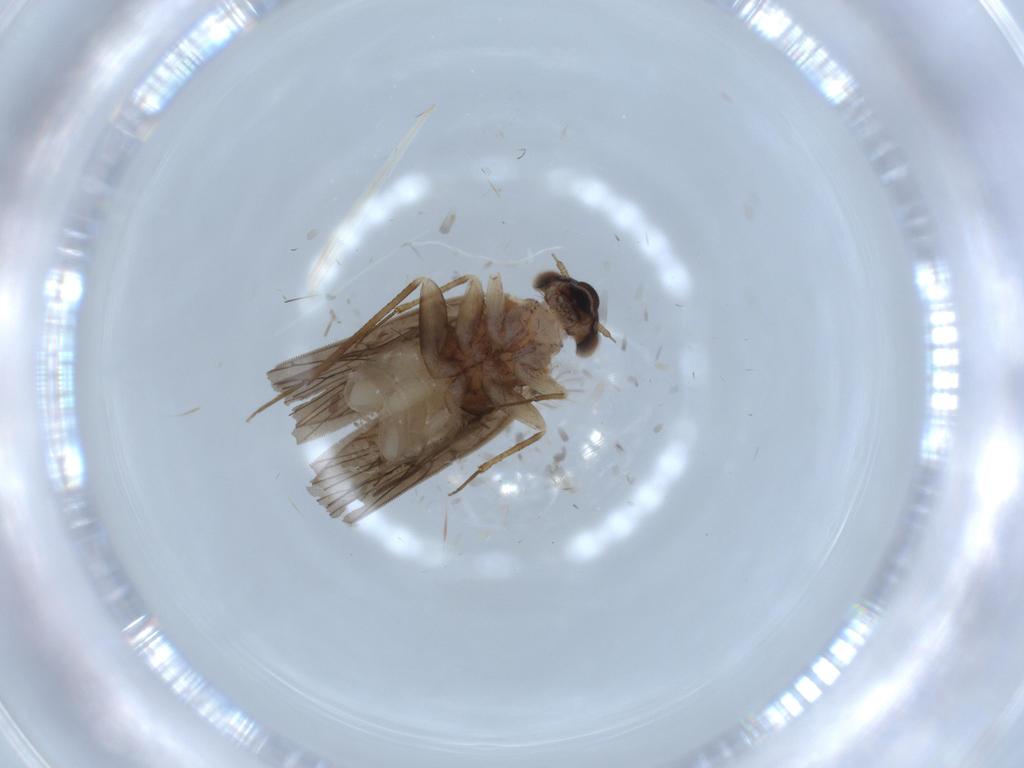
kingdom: Animalia
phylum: Arthropoda
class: Insecta
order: Psocodea
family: Lepidopsocidae
